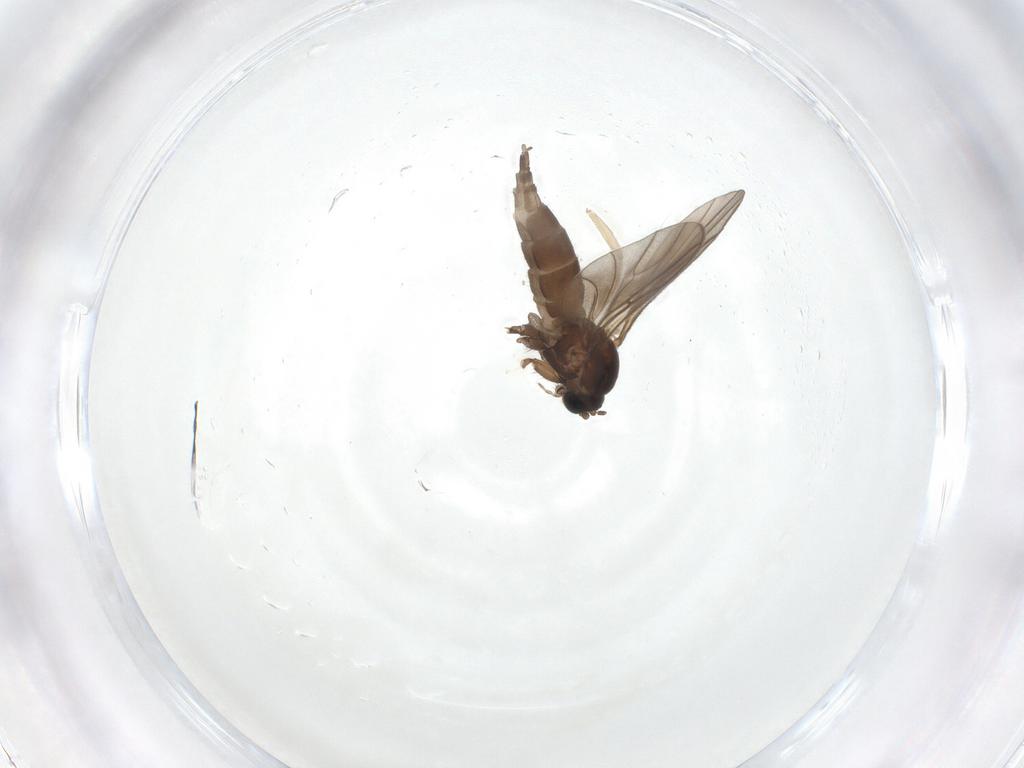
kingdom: Animalia
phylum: Arthropoda
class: Insecta
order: Diptera
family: Psychodidae
